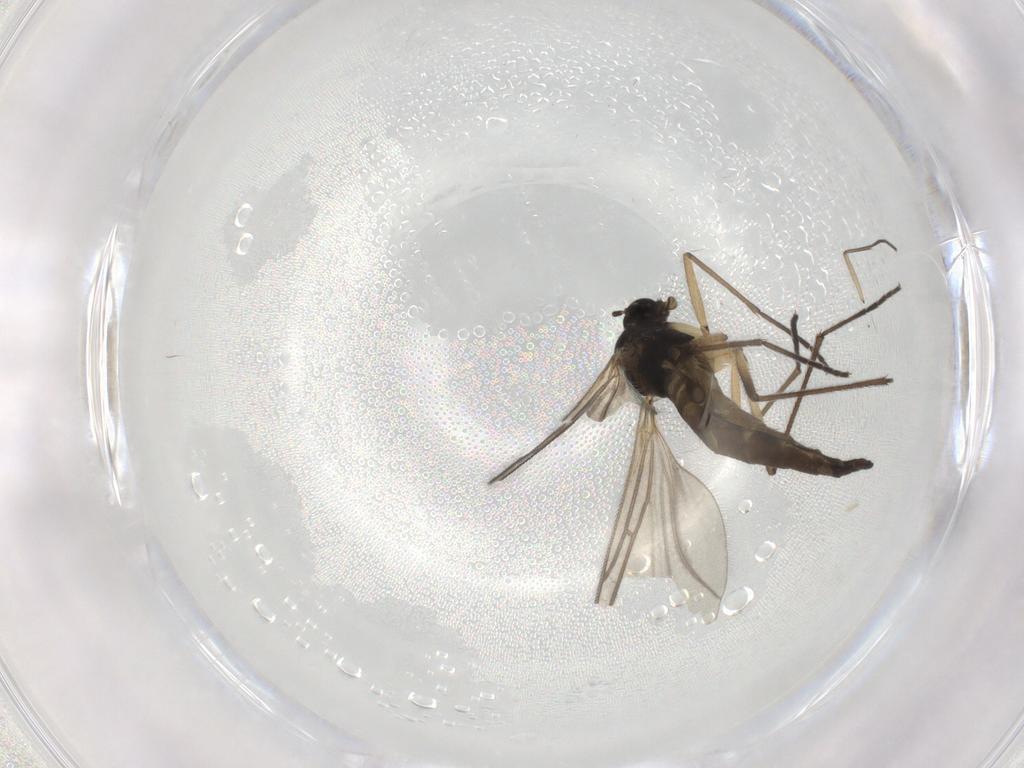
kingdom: Animalia
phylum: Arthropoda
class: Insecta
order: Diptera
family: Sciaridae
